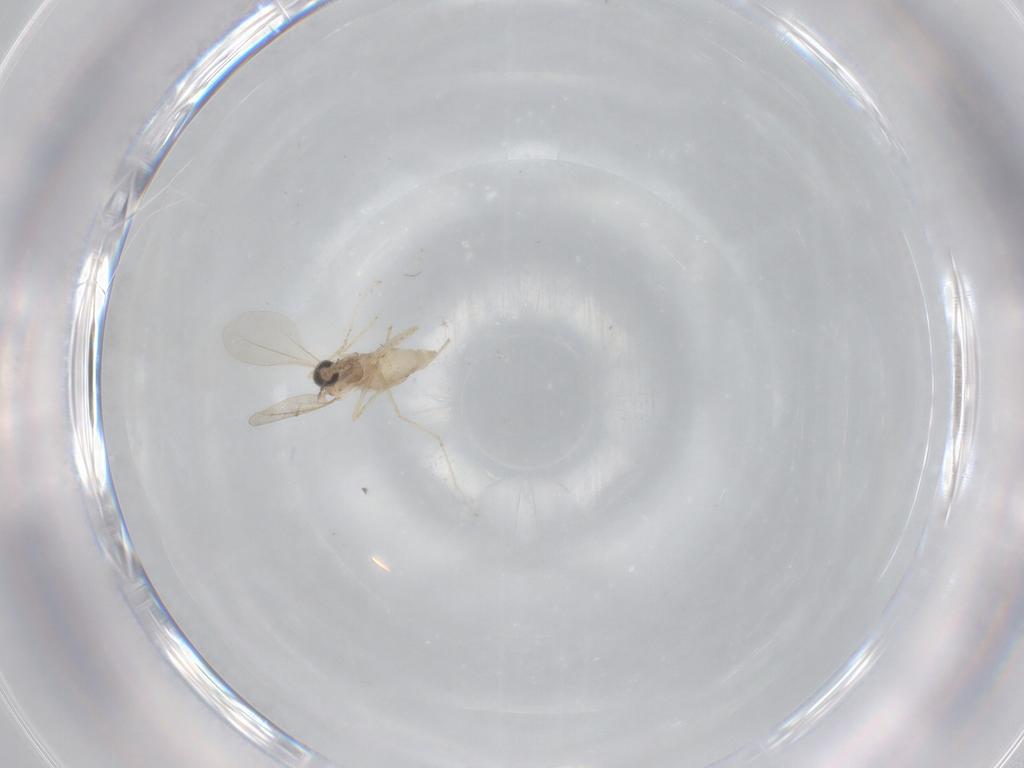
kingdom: Animalia
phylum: Arthropoda
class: Insecta
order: Diptera
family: Cecidomyiidae
